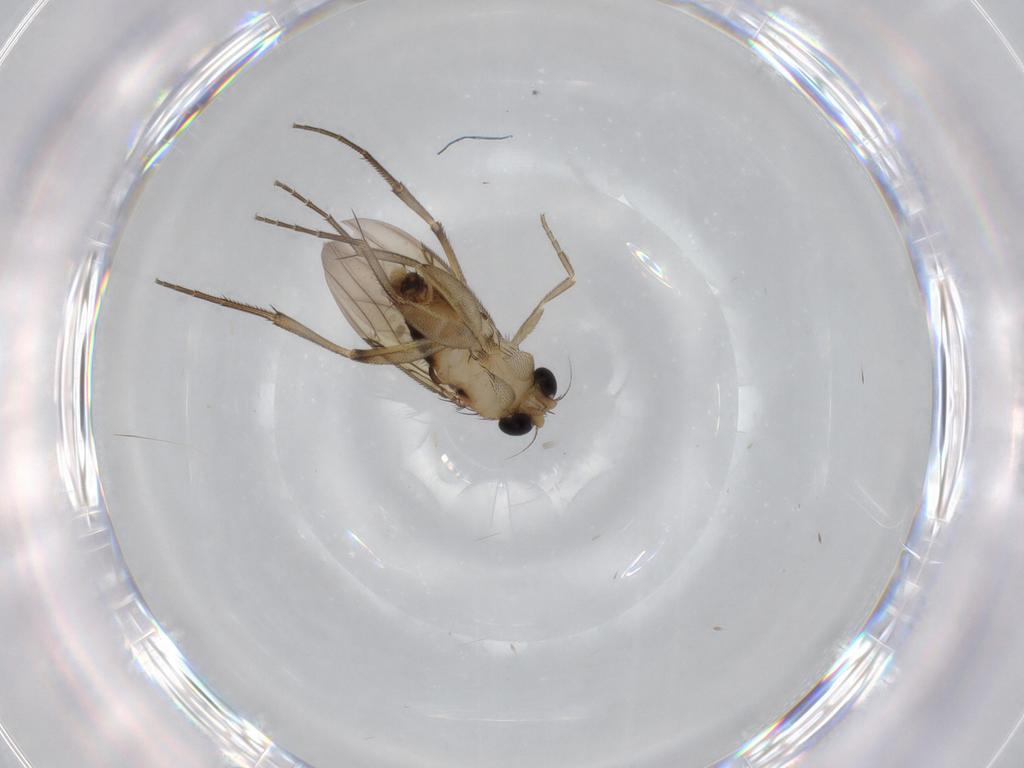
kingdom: Animalia
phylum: Arthropoda
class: Insecta
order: Diptera
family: Phoridae
